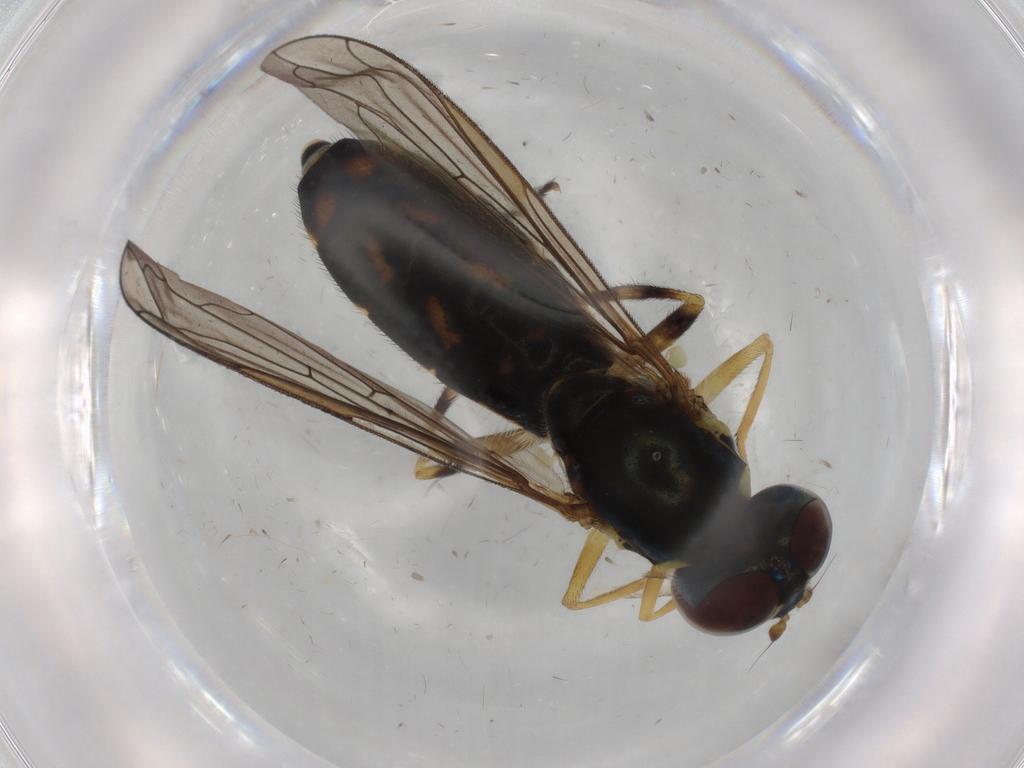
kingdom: Animalia
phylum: Arthropoda
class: Insecta
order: Diptera
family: Syrphidae
